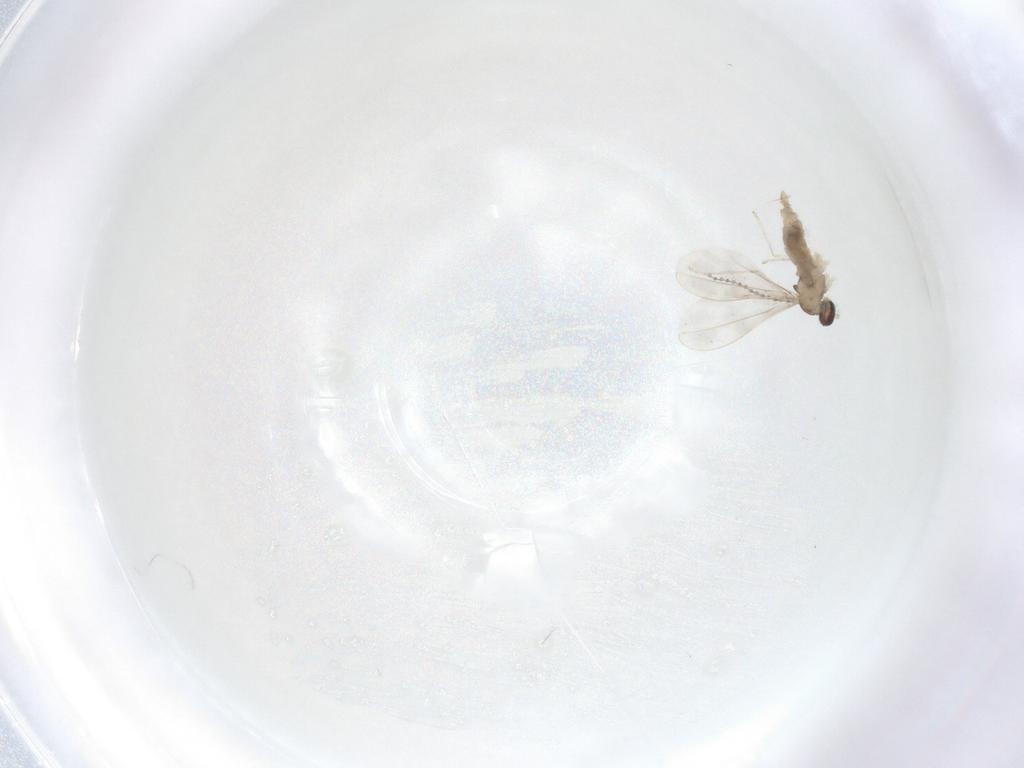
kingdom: Animalia
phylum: Arthropoda
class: Insecta
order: Diptera
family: Cecidomyiidae
